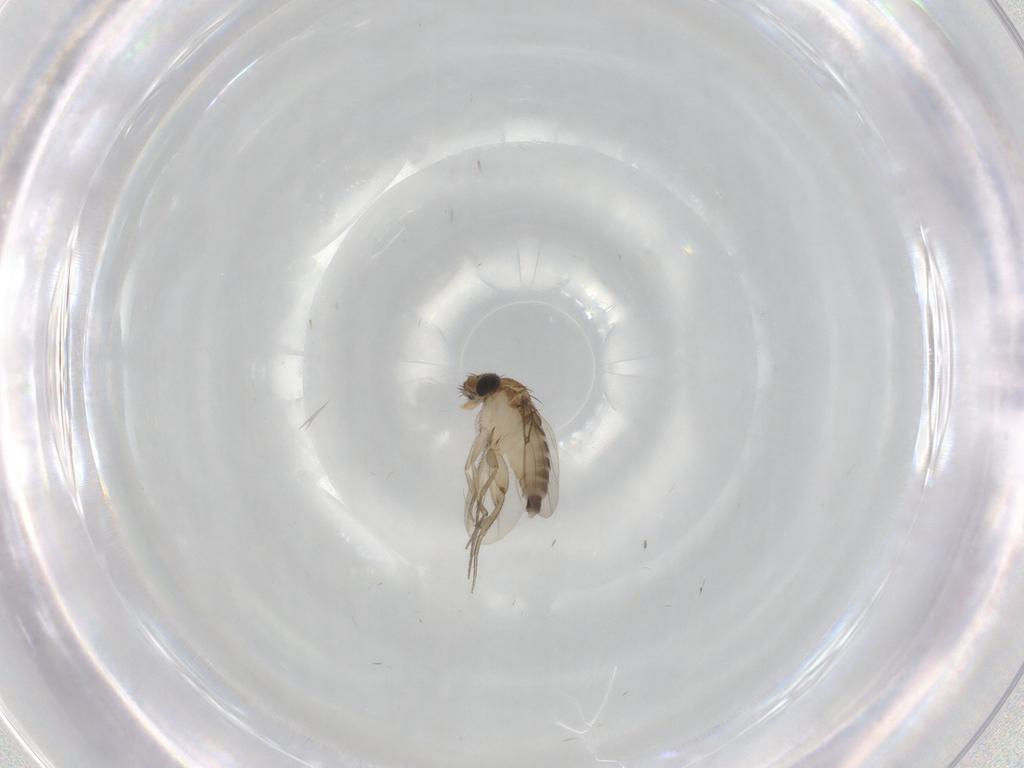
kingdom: Animalia
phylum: Arthropoda
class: Insecta
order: Diptera
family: Phoridae
